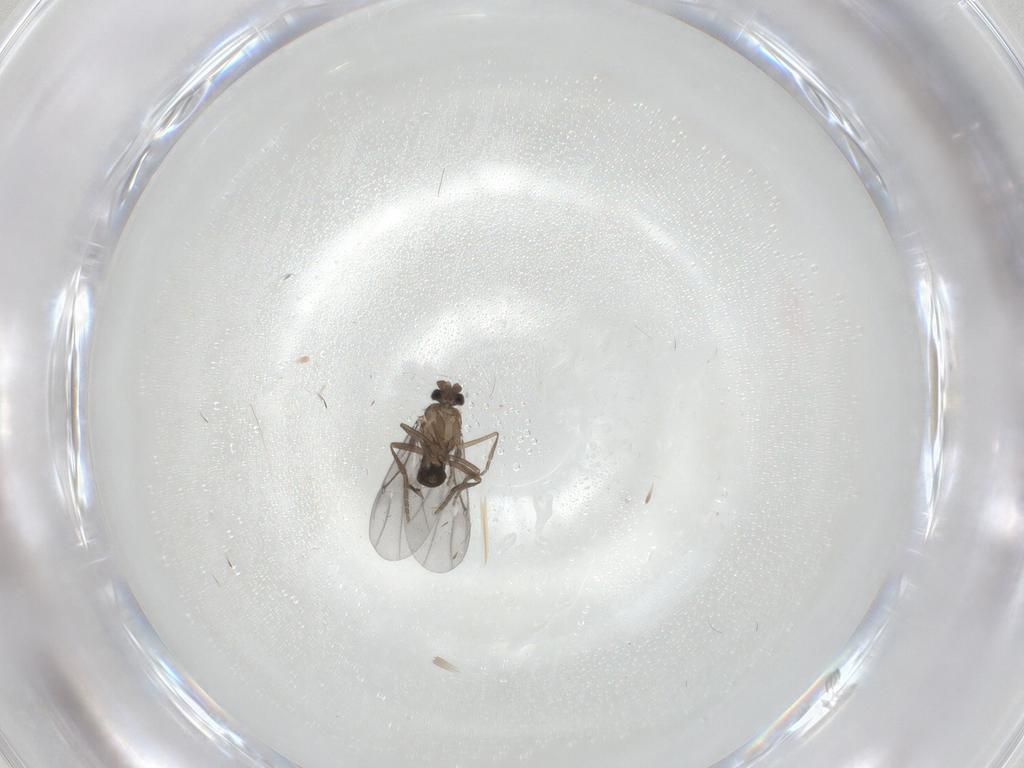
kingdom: Animalia
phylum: Arthropoda
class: Insecta
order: Diptera
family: Phoridae
